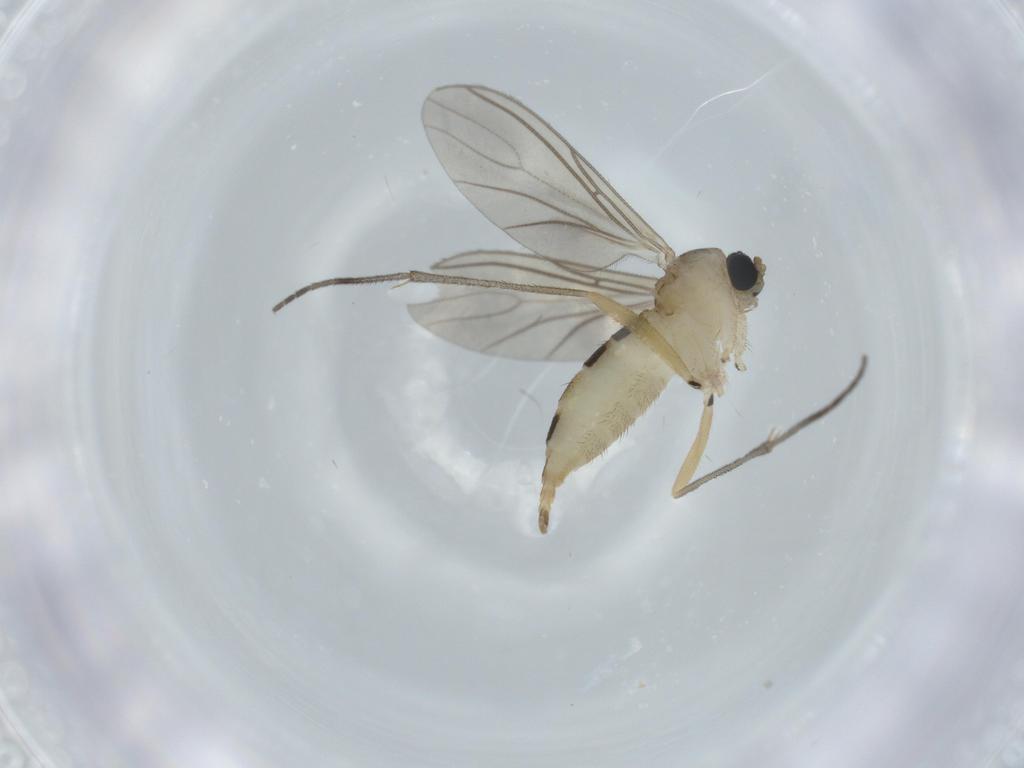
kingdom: Animalia
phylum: Arthropoda
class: Insecta
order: Diptera
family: Sciaridae
